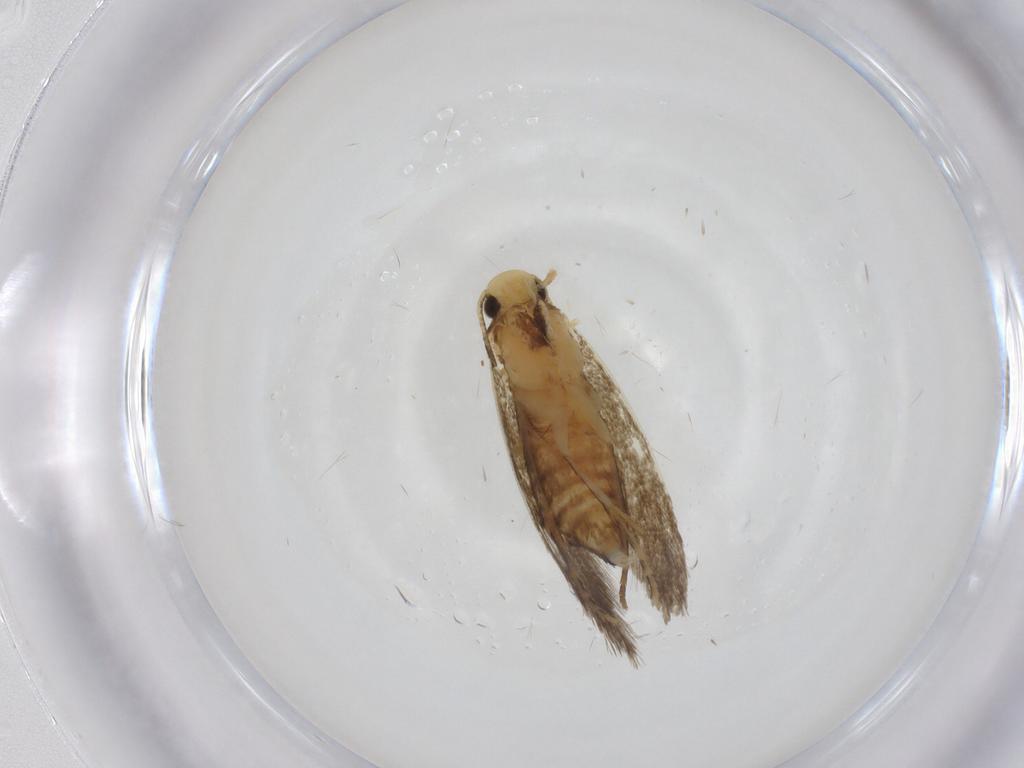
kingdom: Animalia
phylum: Arthropoda
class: Insecta
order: Lepidoptera
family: Tineidae
